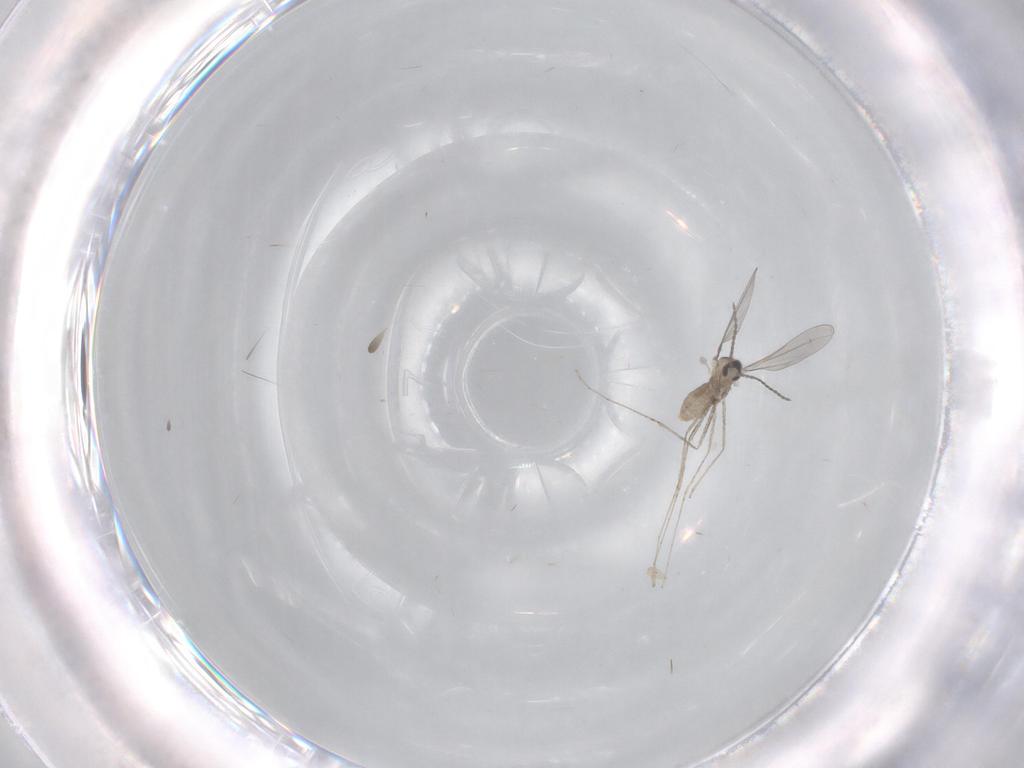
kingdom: Animalia
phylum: Arthropoda
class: Insecta
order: Diptera
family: Cecidomyiidae
